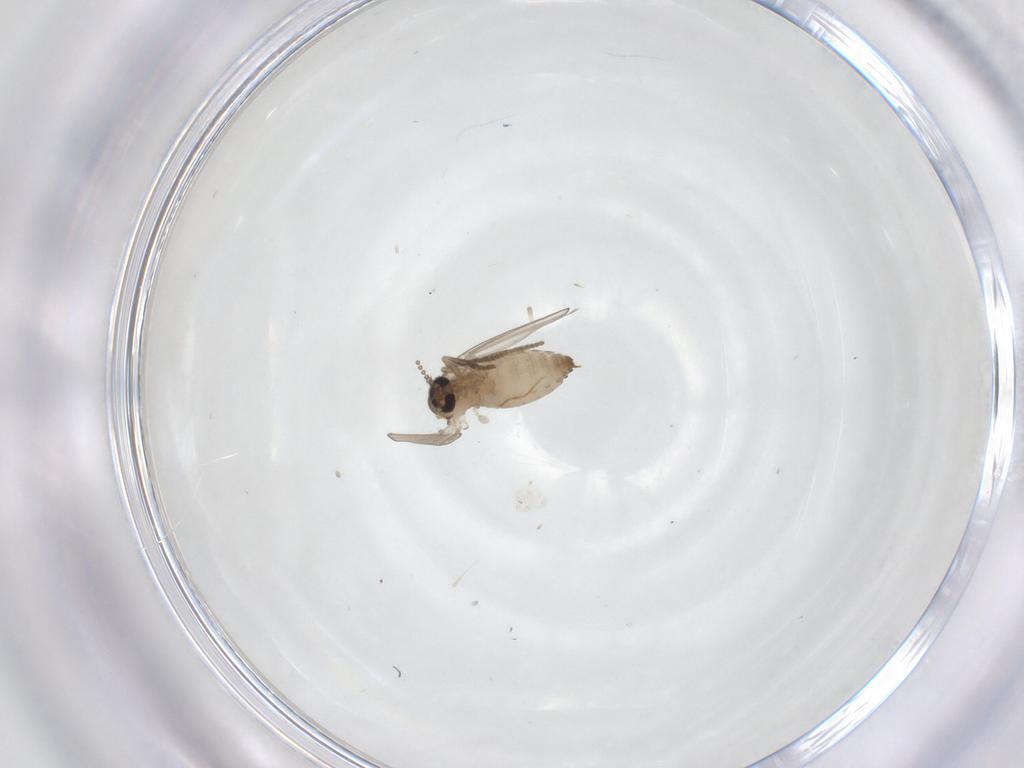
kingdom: Animalia
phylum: Arthropoda
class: Insecta
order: Diptera
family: Psychodidae
